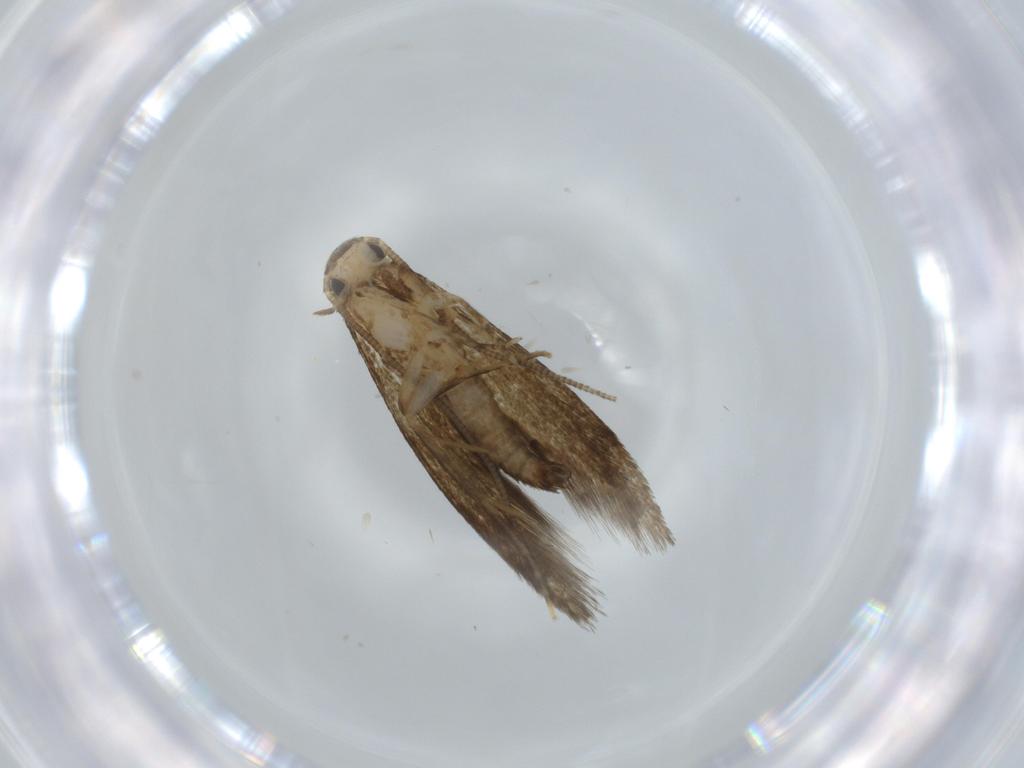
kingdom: Animalia
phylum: Arthropoda
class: Insecta
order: Lepidoptera
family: Tineidae
